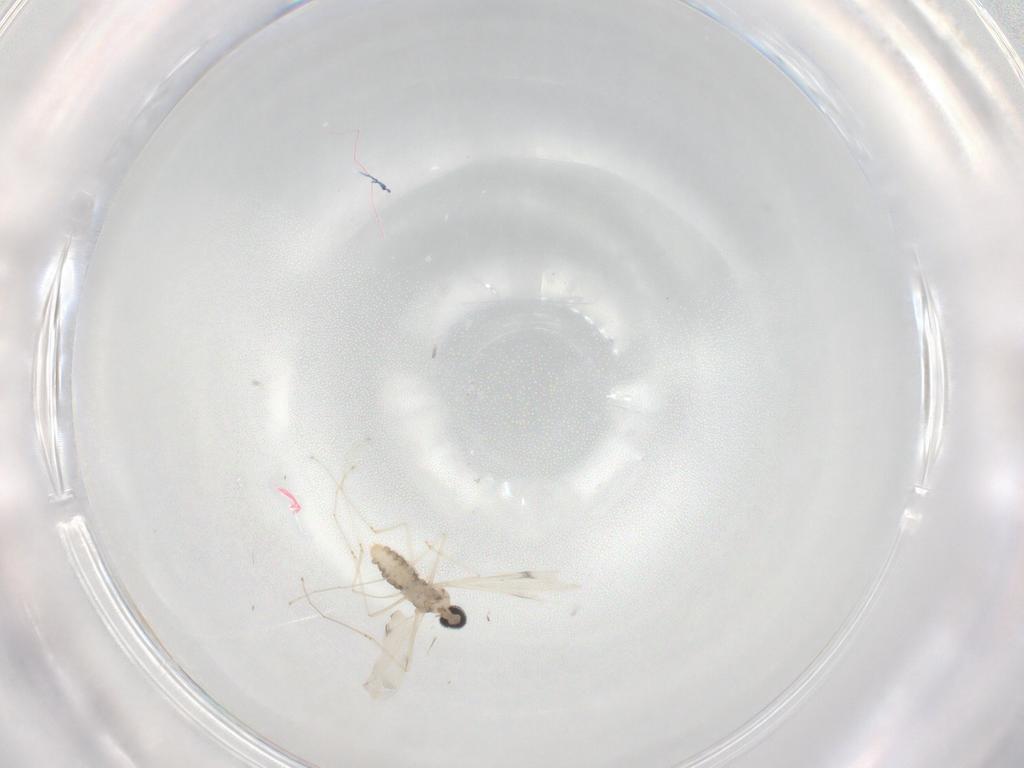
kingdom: Animalia
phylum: Arthropoda
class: Insecta
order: Diptera
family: Cecidomyiidae
